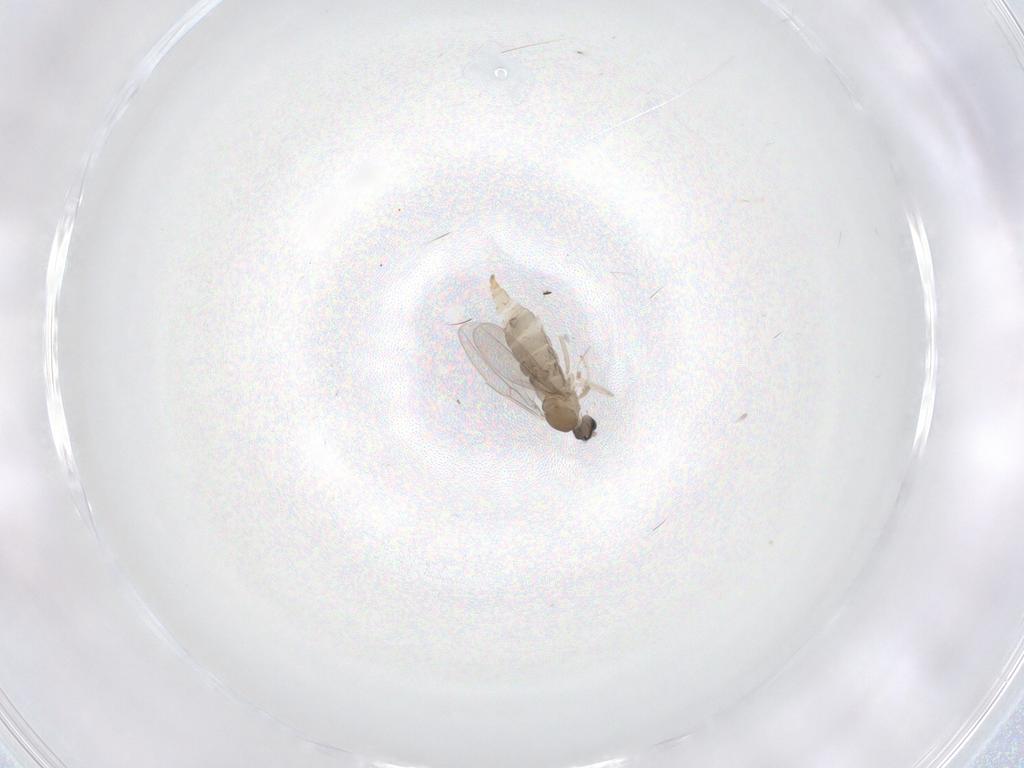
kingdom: Animalia
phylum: Arthropoda
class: Insecta
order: Diptera
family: Cecidomyiidae
